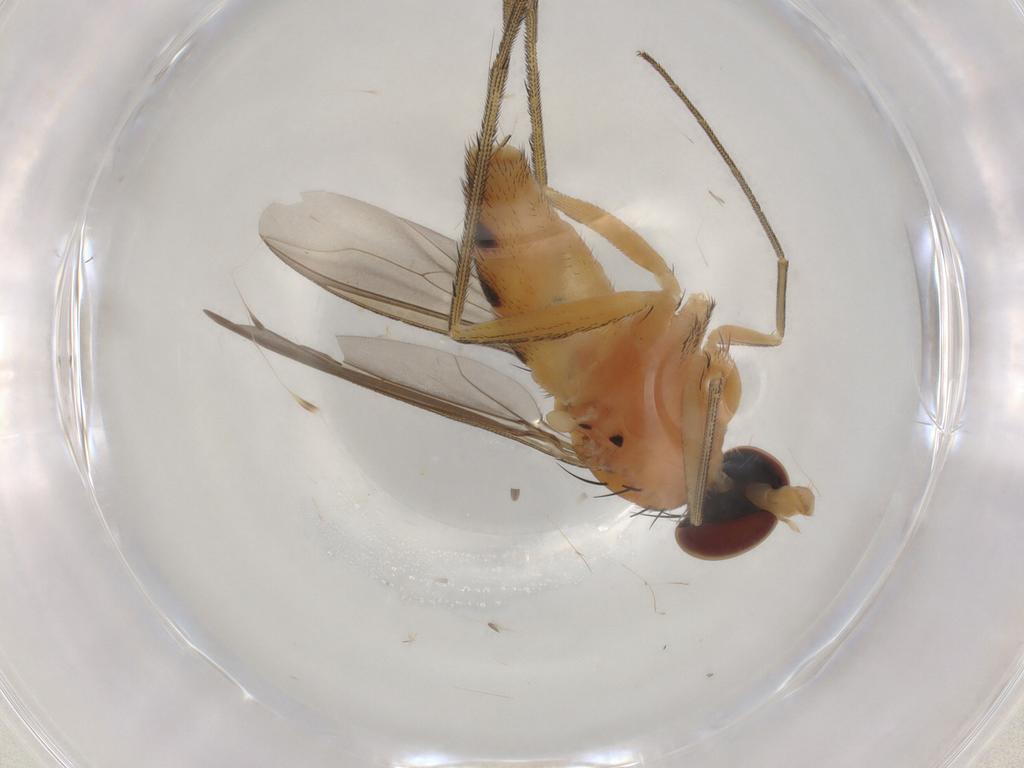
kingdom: Animalia
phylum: Arthropoda
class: Insecta
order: Diptera
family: Dolichopodidae
